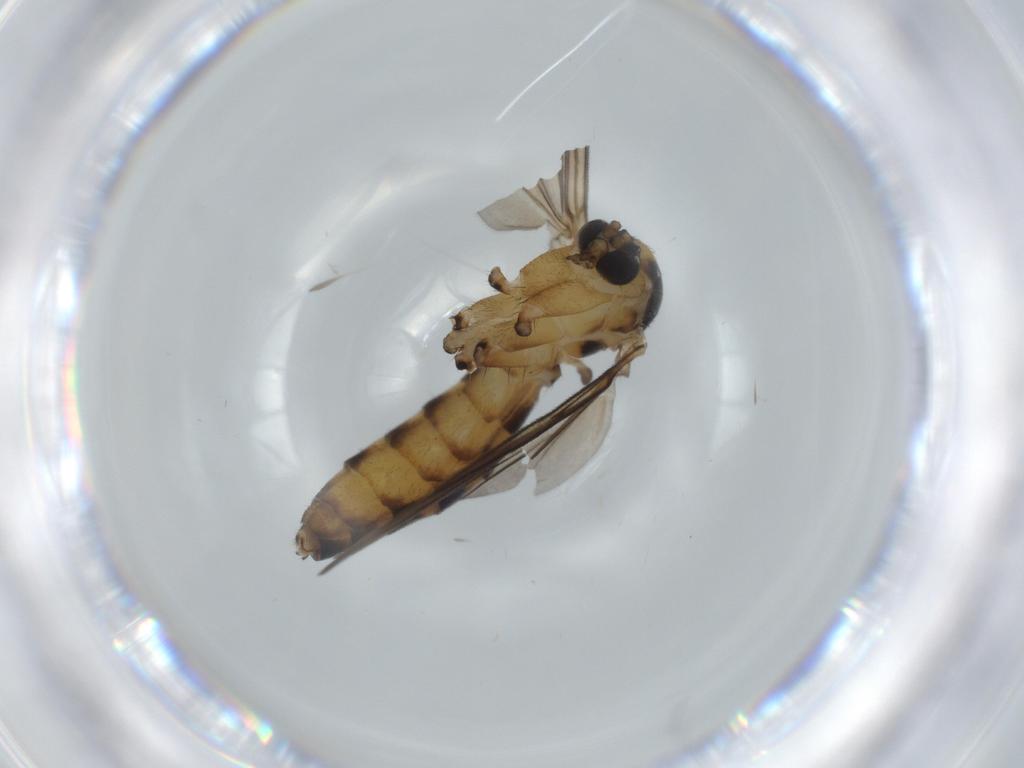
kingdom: Animalia
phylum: Arthropoda
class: Insecta
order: Diptera
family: Mycetophilidae
